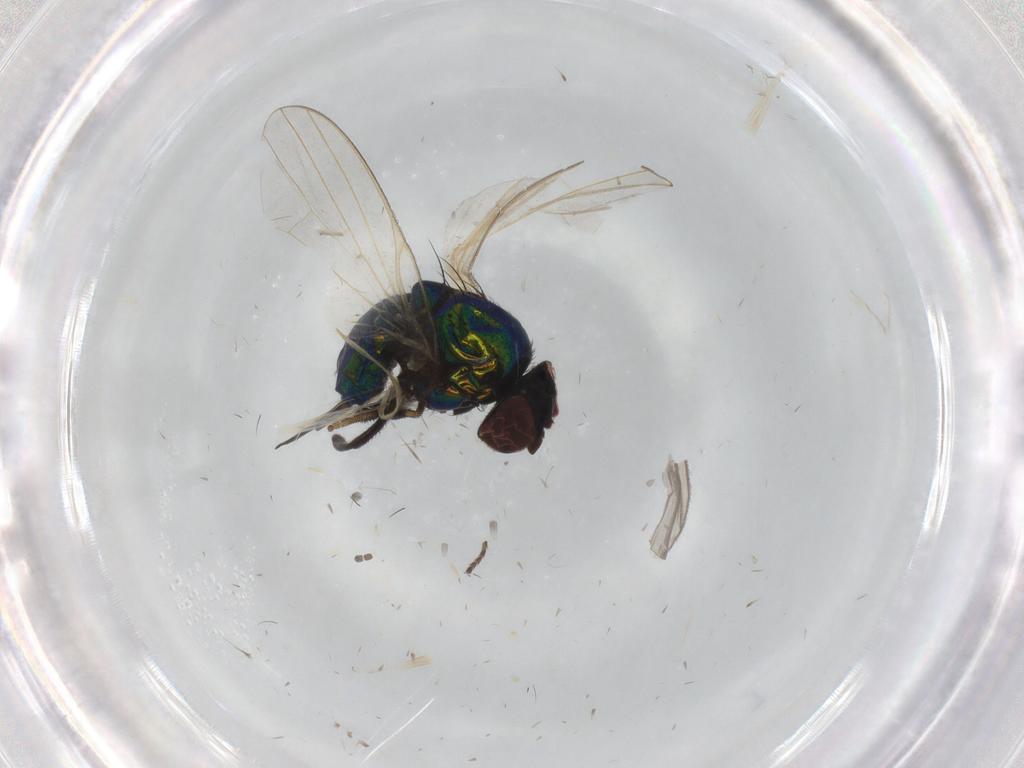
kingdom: Animalia
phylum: Arthropoda
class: Insecta
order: Diptera
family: Lonchaeidae
